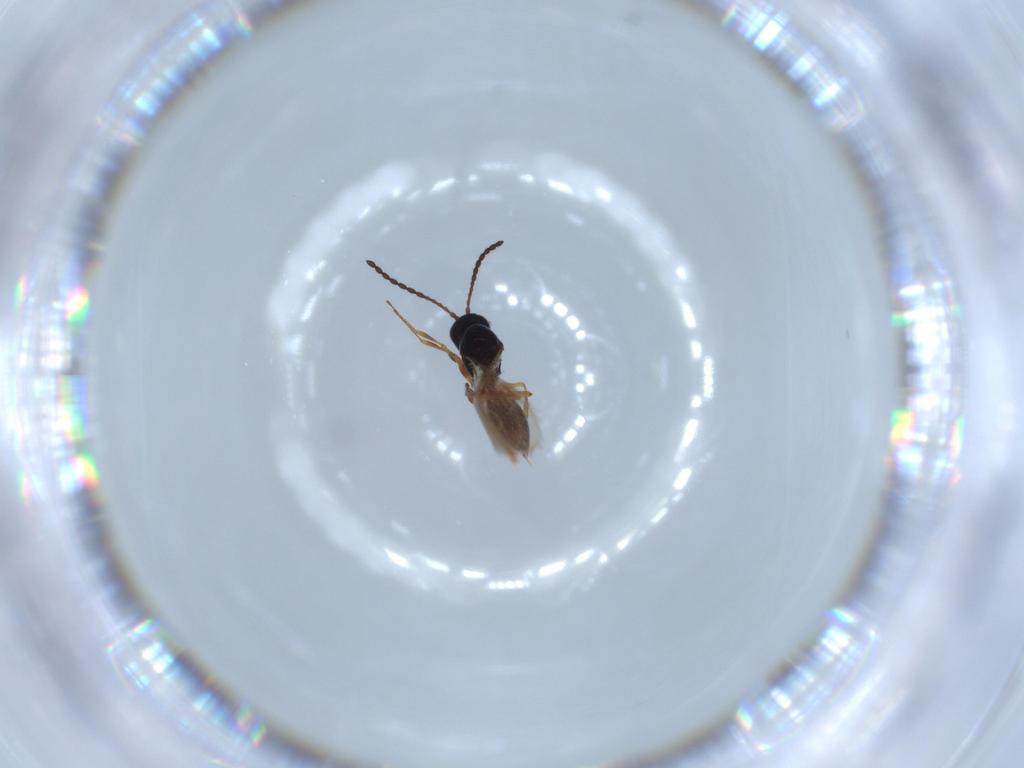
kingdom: Animalia
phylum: Arthropoda
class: Insecta
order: Hymenoptera
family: Figitidae
